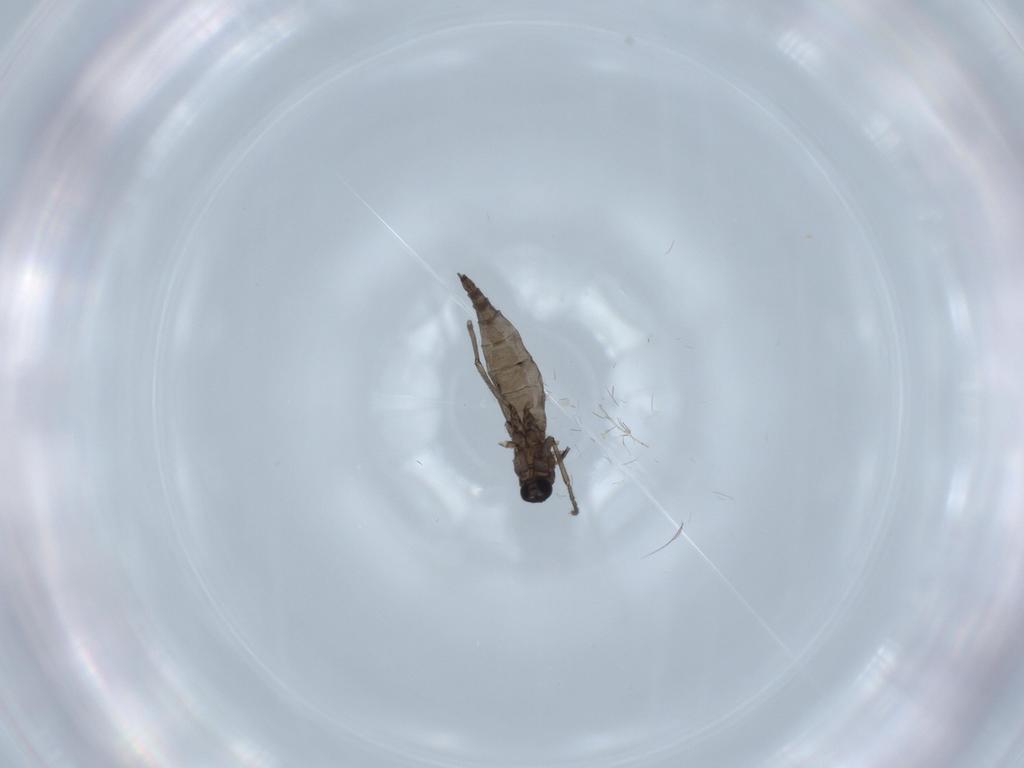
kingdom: Animalia
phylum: Arthropoda
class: Insecta
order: Diptera
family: Sciaridae
